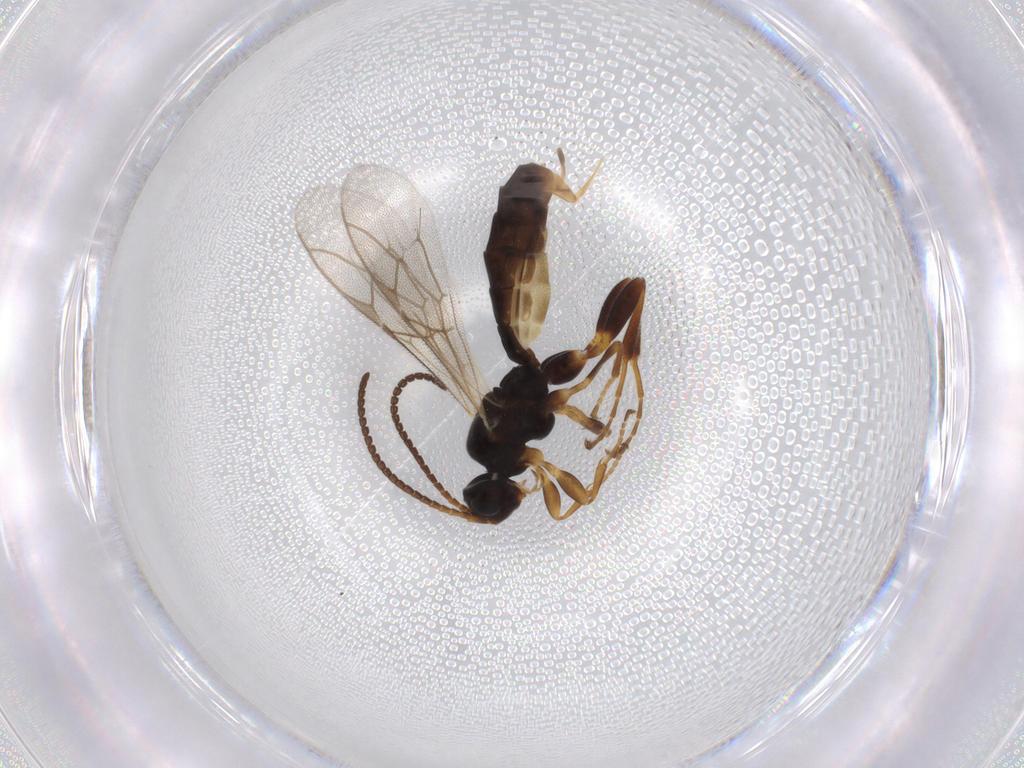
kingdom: Animalia
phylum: Arthropoda
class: Insecta
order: Hymenoptera
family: Ichneumonidae
